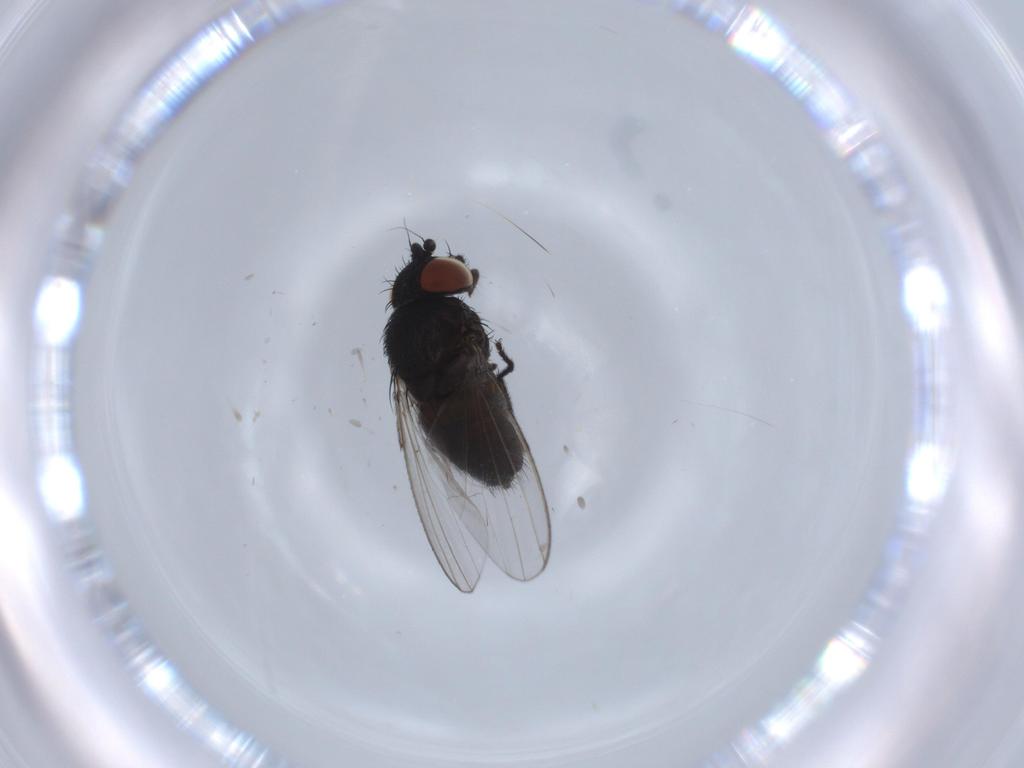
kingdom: Animalia
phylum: Arthropoda
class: Insecta
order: Diptera
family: Milichiidae
